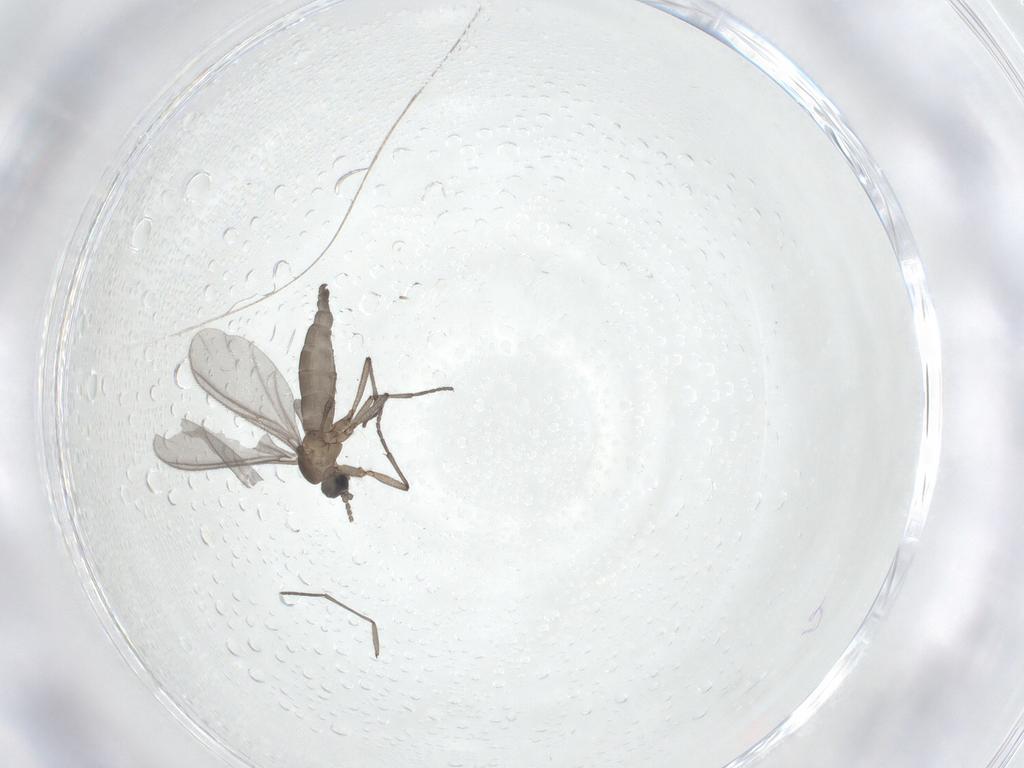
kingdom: Animalia
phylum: Arthropoda
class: Insecta
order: Diptera
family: Sciaridae
